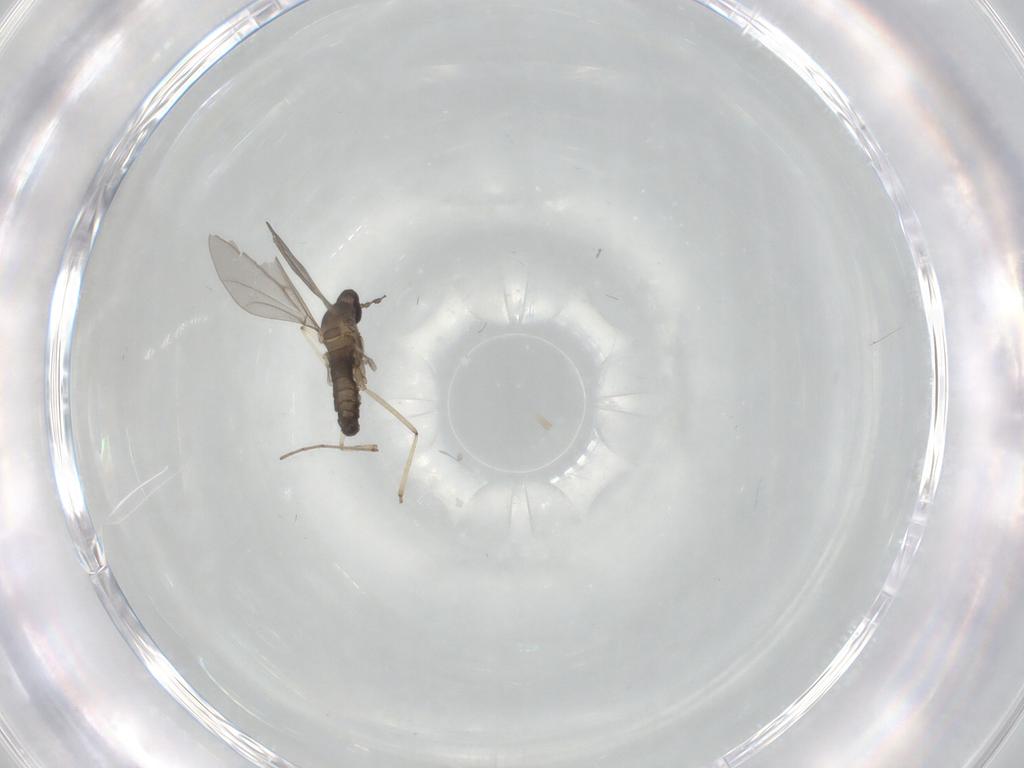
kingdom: Animalia
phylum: Arthropoda
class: Insecta
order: Diptera
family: Cecidomyiidae
